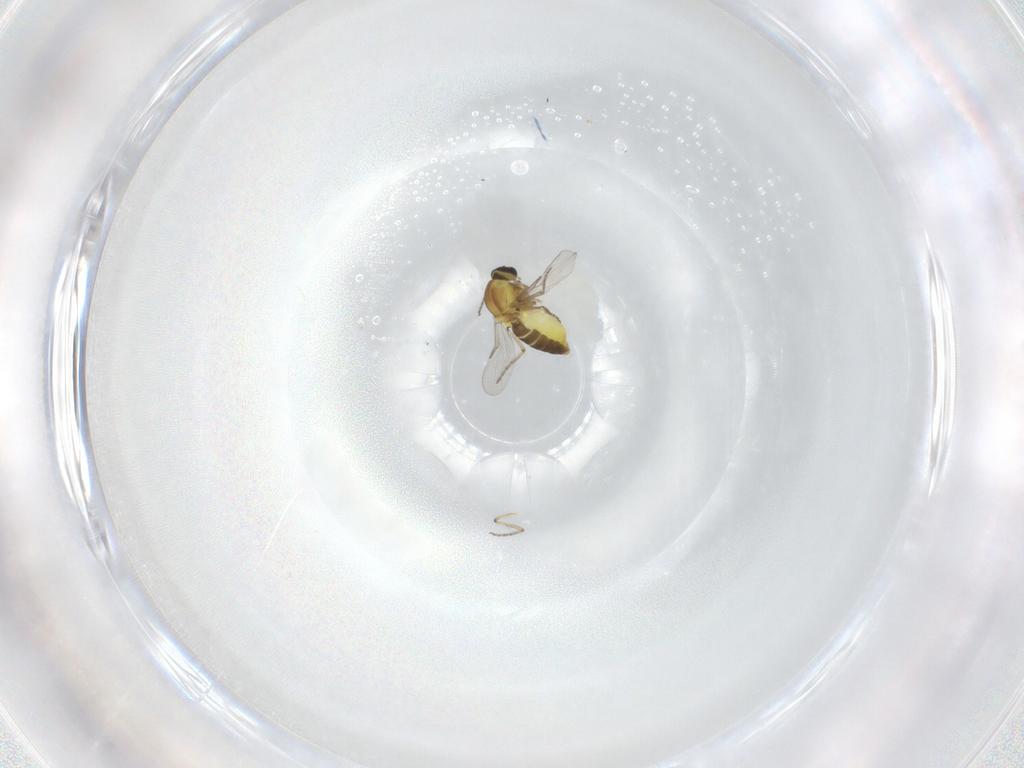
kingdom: Animalia
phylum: Arthropoda
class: Insecta
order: Diptera
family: Ceratopogonidae
